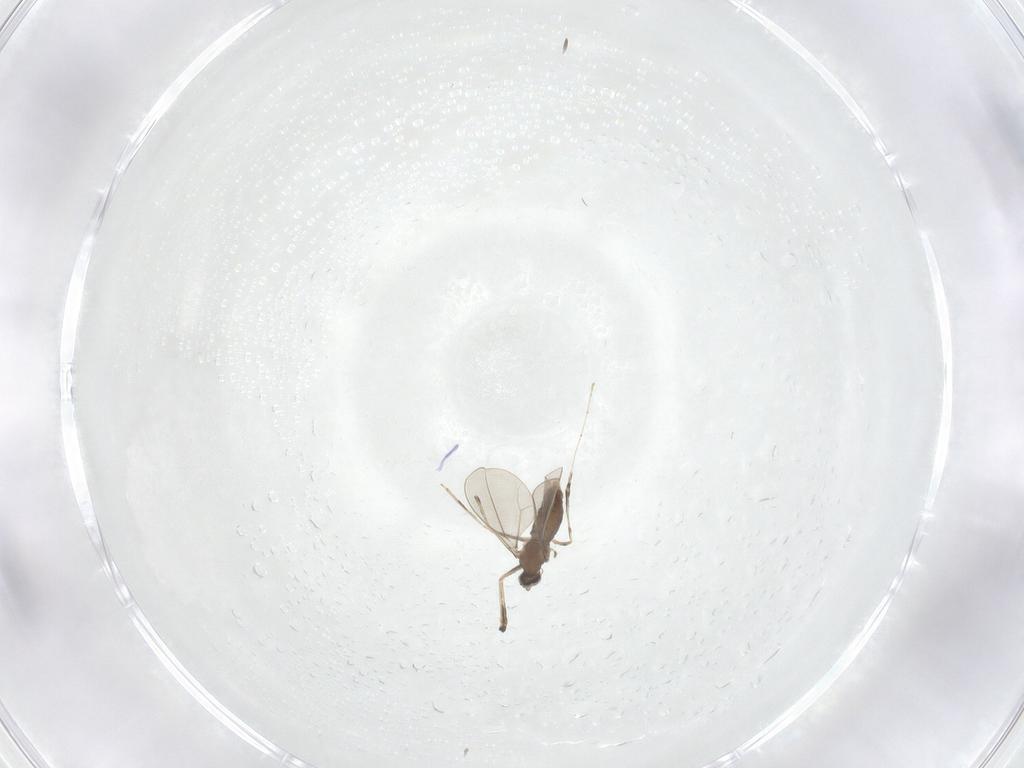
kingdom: Animalia
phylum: Arthropoda
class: Insecta
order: Diptera
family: Cecidomyiidae
